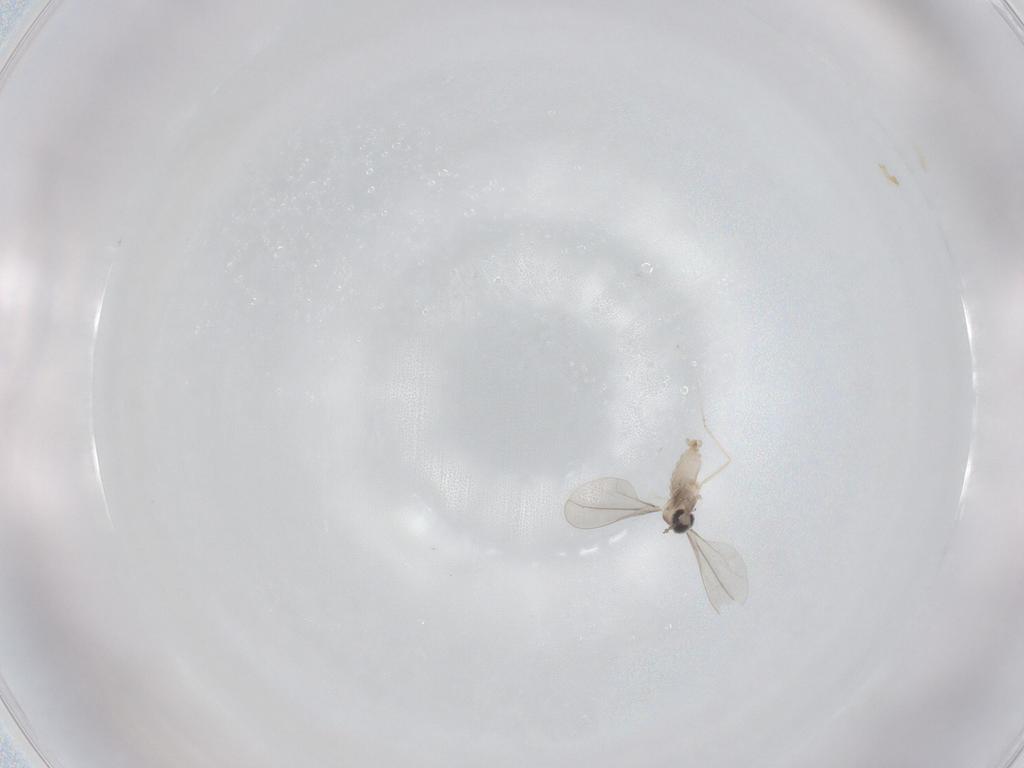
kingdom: Animalia
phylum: Arthropoda
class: Insecta
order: Diptera
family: Cecidomyiidae
